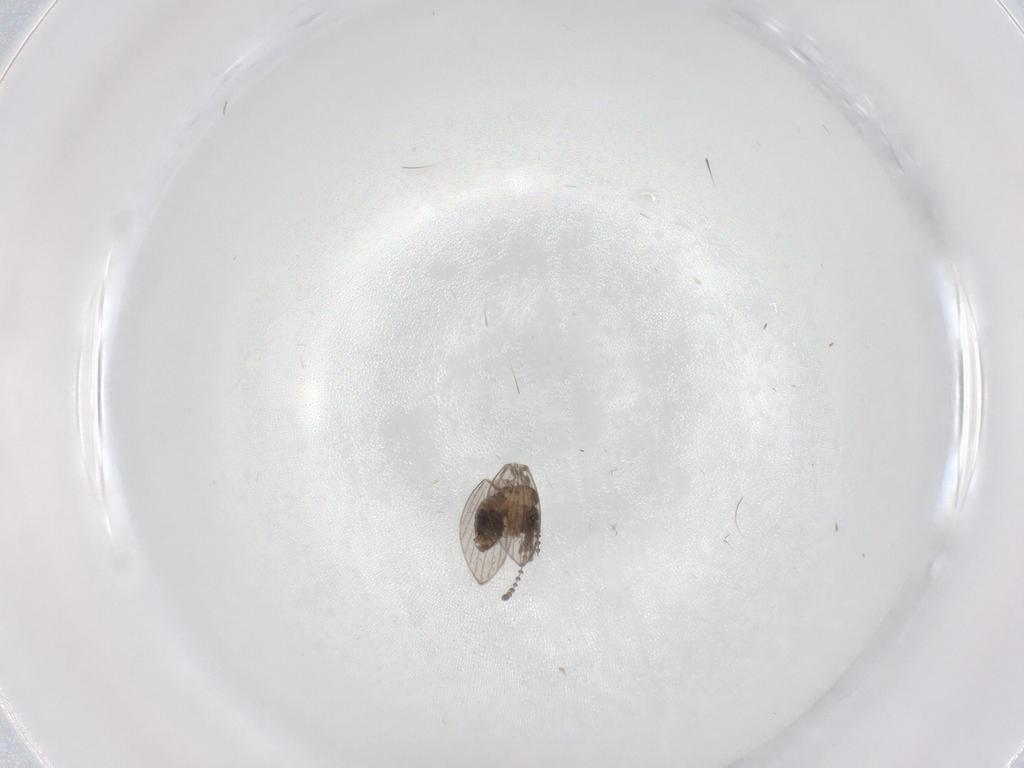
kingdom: Animalia
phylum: Arthropoda
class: Insecta
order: Diptera
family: Psychodidae
